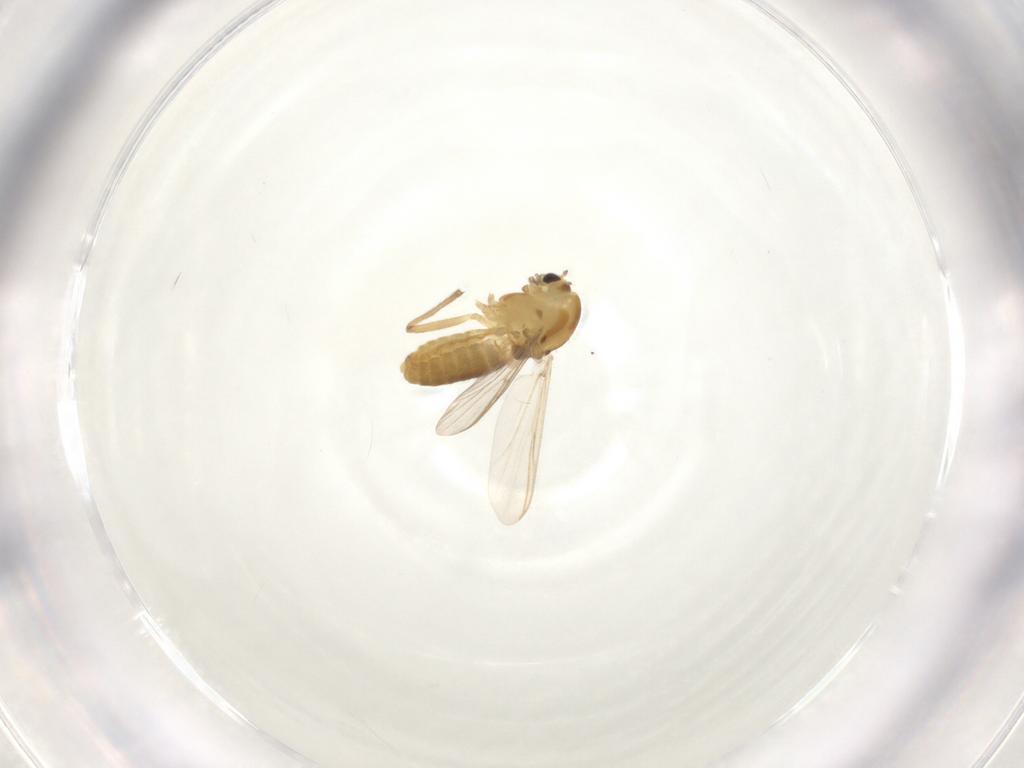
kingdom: Animalia
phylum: Arthropoda
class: Insecta
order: Diptera
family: Chironomidae
